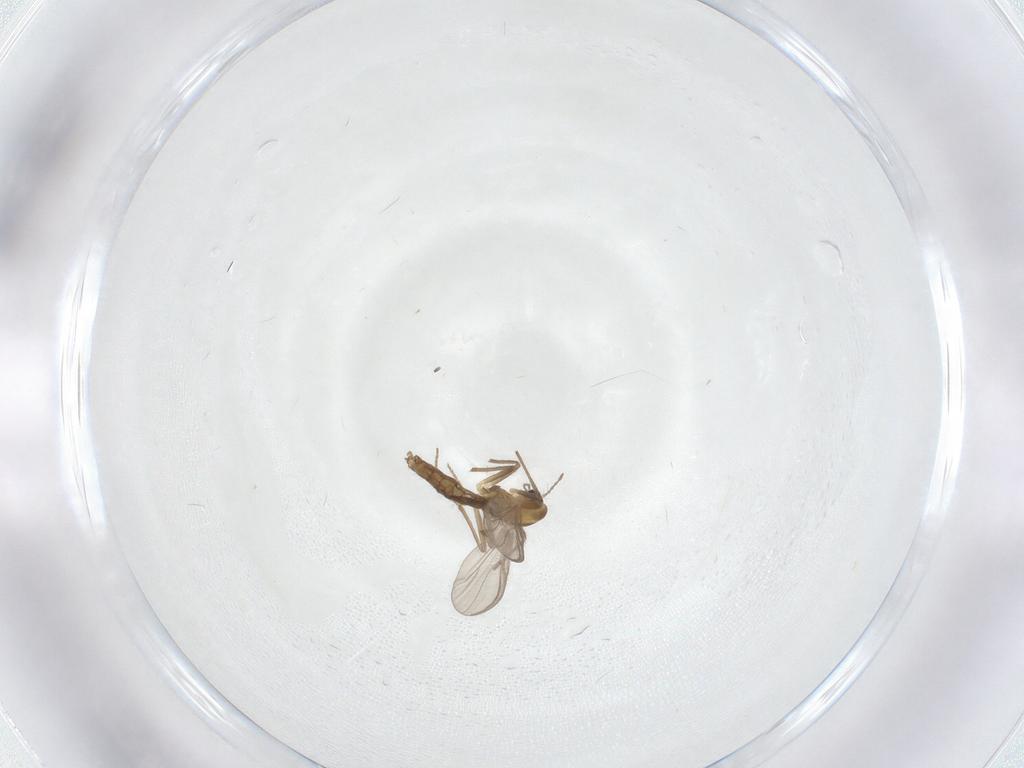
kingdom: Animalia
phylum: Arthropoda
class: Insecta
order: Diptera
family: Chironomidae
